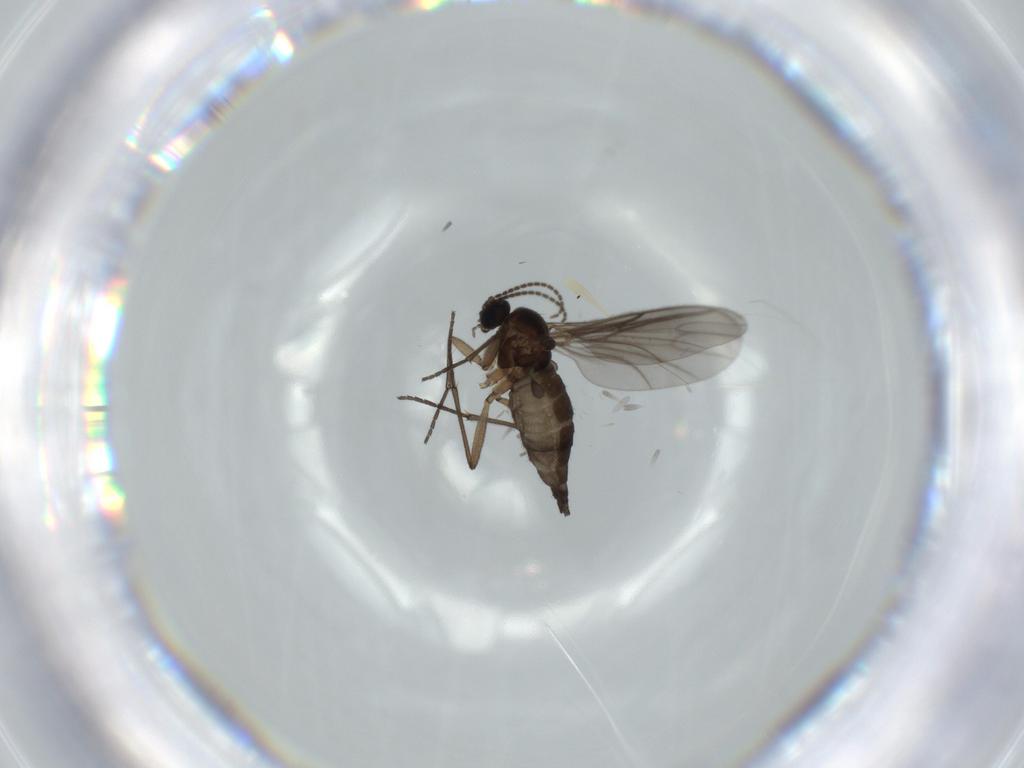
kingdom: Animalia
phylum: Arthropoda
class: Insecta
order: Diptera
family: Sciaridae
